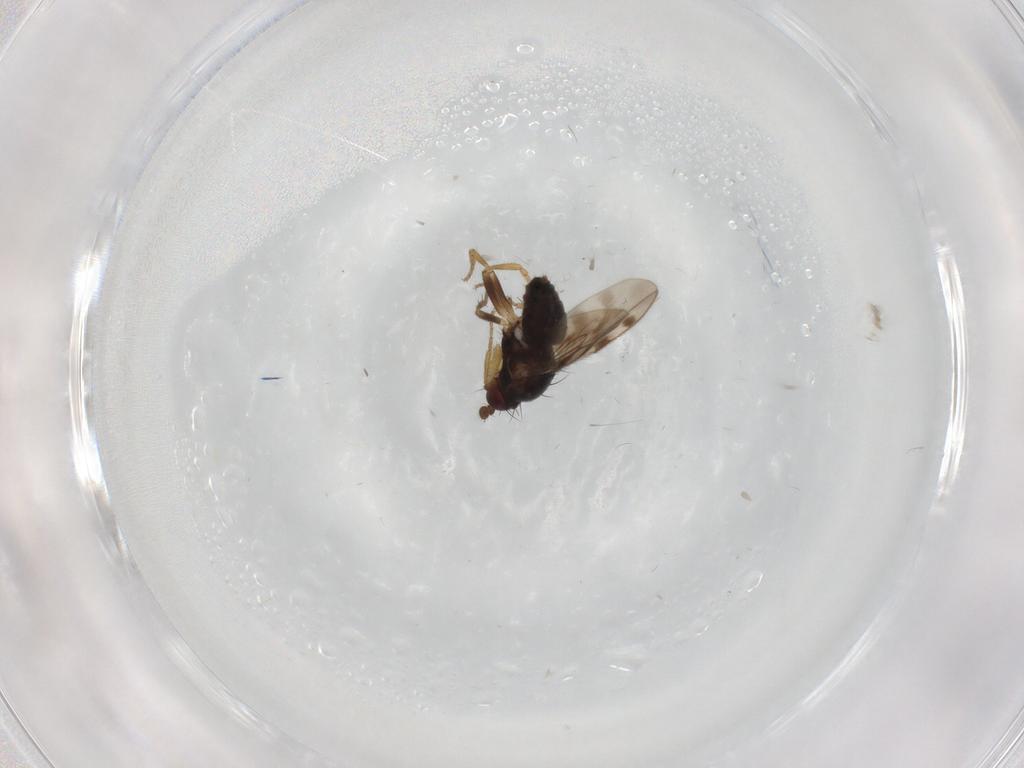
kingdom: Animalia
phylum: Arthropoda
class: Insecta
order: Diptera
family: Sphaeroceridae
